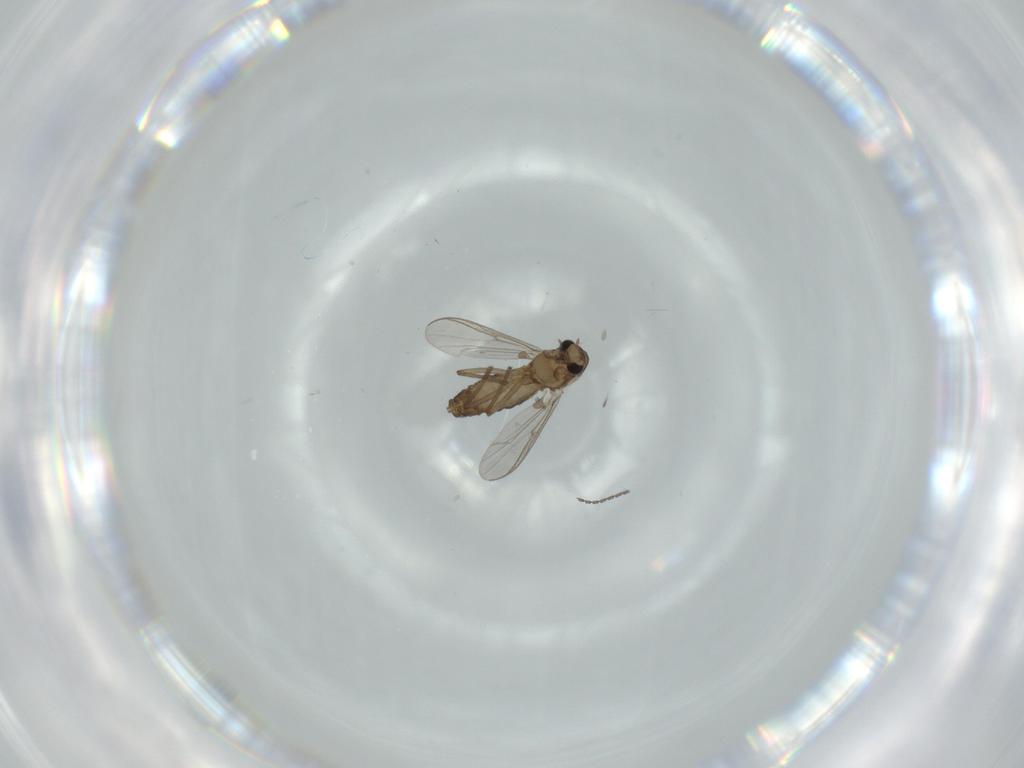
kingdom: Animalia
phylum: Arthropoda
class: Insecta
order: Diptera
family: Chironomidae
